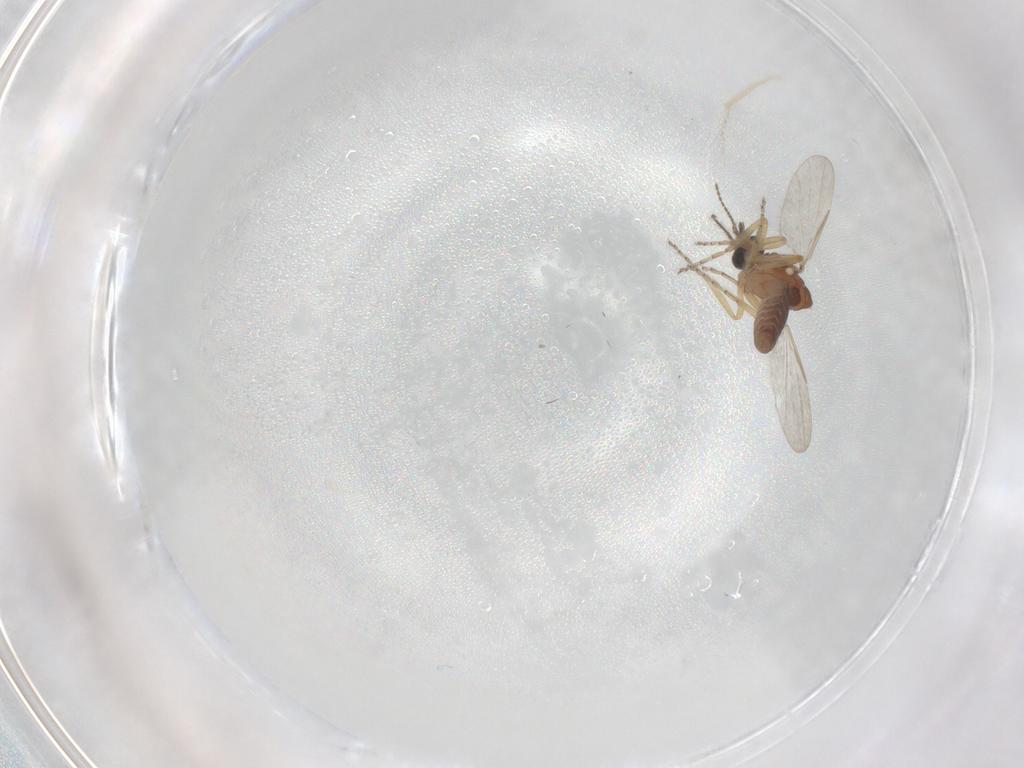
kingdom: Animalia
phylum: Arthropoda
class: Insecta
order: Diptera
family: Ceratopogonidae
